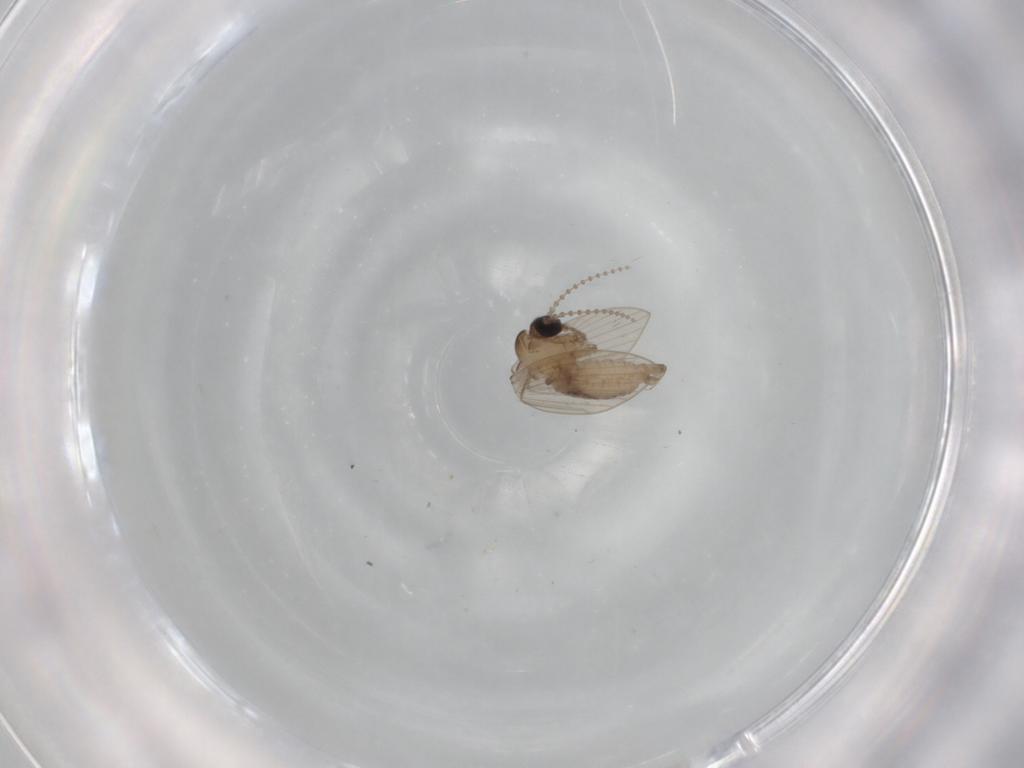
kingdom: Animalia
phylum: Arthropoda
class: Insecta
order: Diptera
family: Psychodidae
